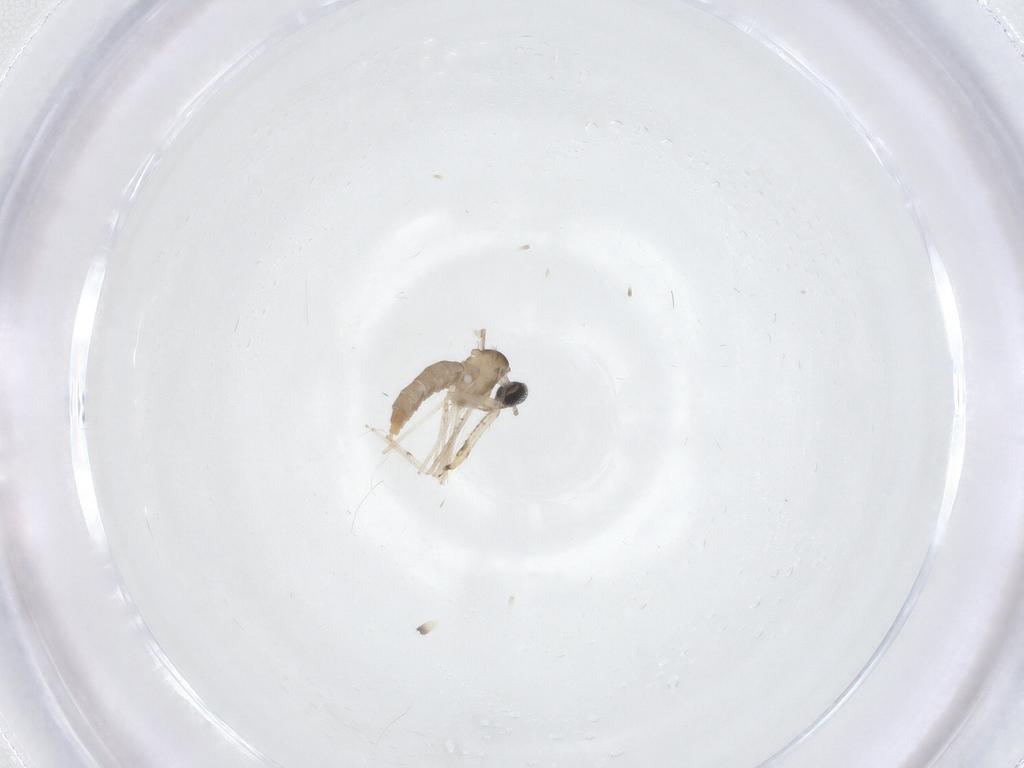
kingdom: Animalia
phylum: Arthropoda
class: Insecta
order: Diptera
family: Cecidomyiidae
